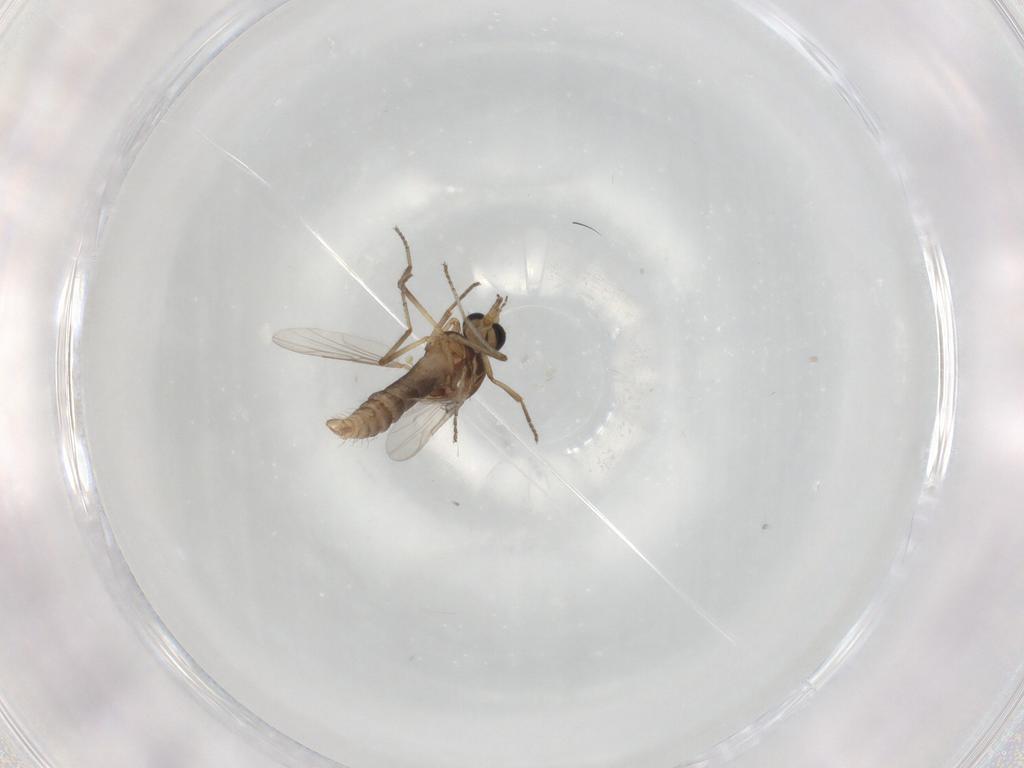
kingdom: Animalia
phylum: Arthropoda
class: Insecta
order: Diptera
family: Ceratopogonidae
